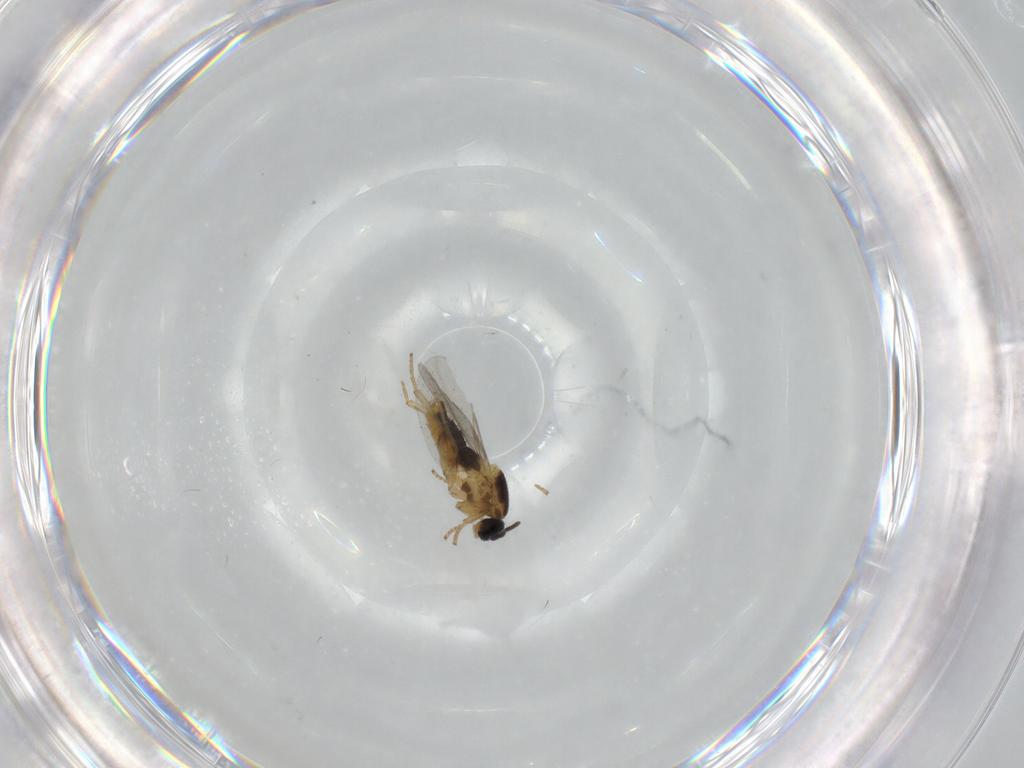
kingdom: Animalia
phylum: Arthropoda
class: Insecta
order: Diptera
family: Scatopsidae
